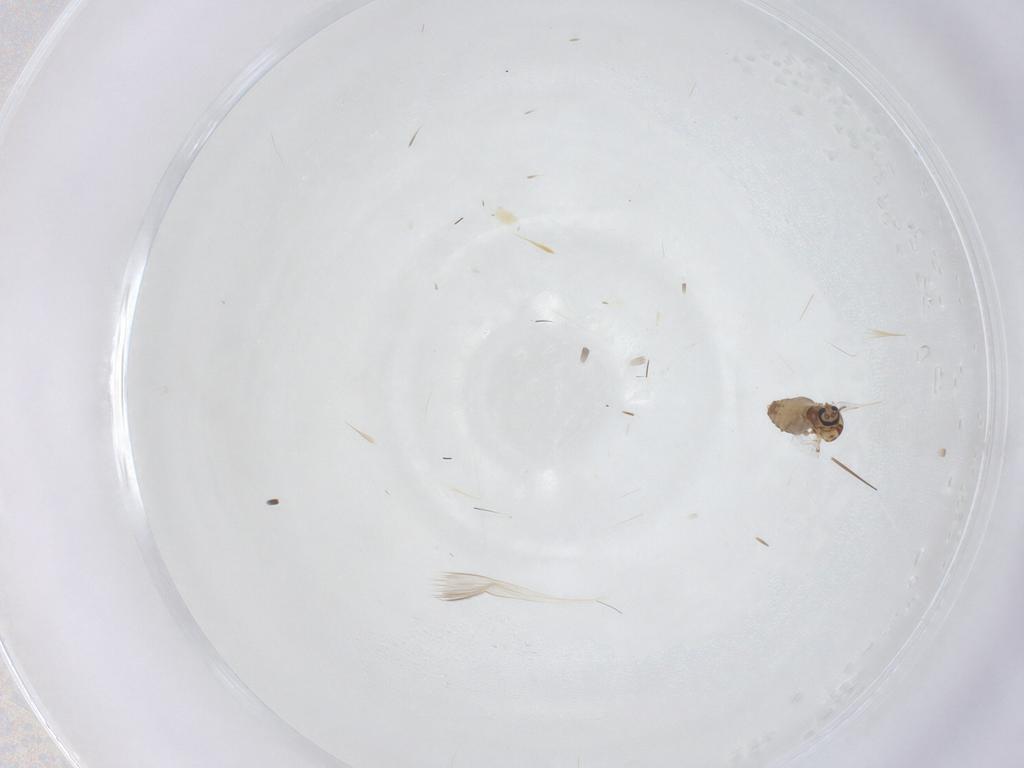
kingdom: Animalia
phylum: Arthropoda
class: Insecta
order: Diptera
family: Ceratopogonidae
